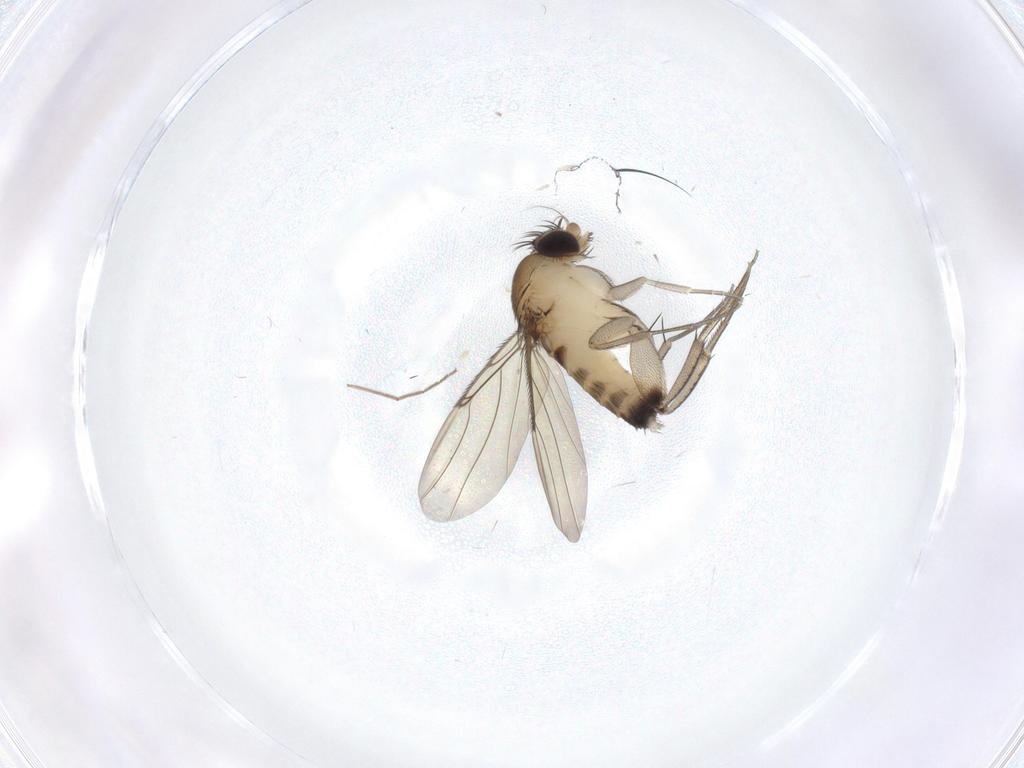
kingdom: Animalia
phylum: Arthropoda
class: Insecta
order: Diptera
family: Phoridae
